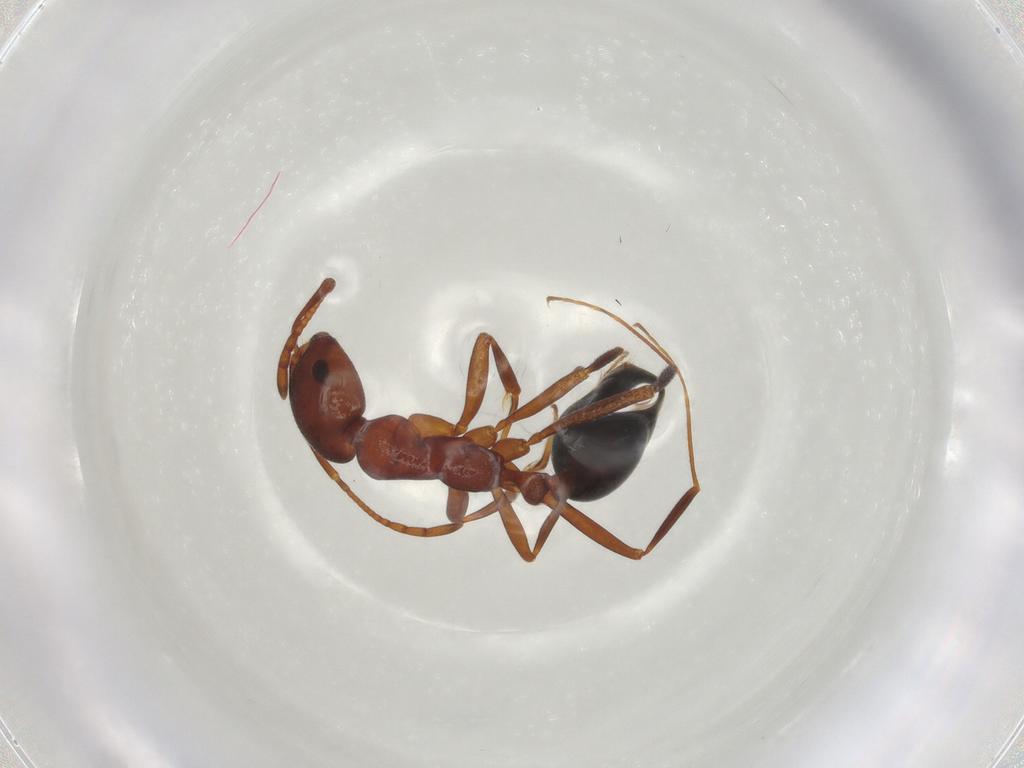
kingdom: Animalia
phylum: Arthropoda
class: Insecta
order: Hymenoptera
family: Formicidae
